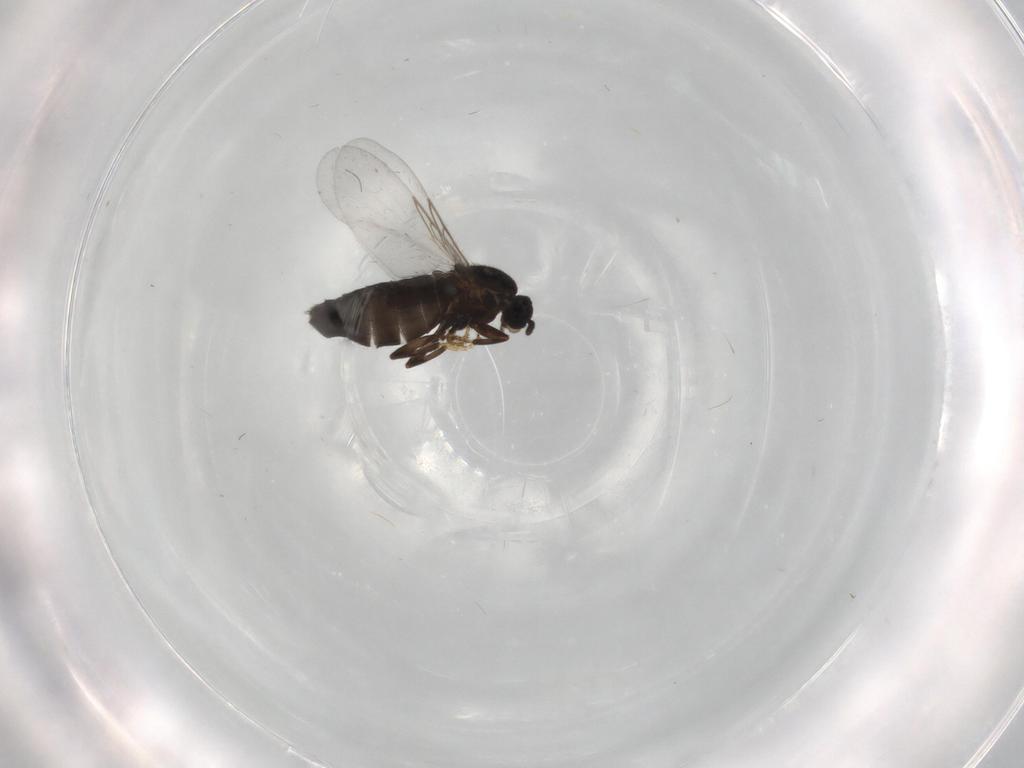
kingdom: Animalia
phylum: Arthropoda
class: Insecta
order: Diptera
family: Scatopsidae
